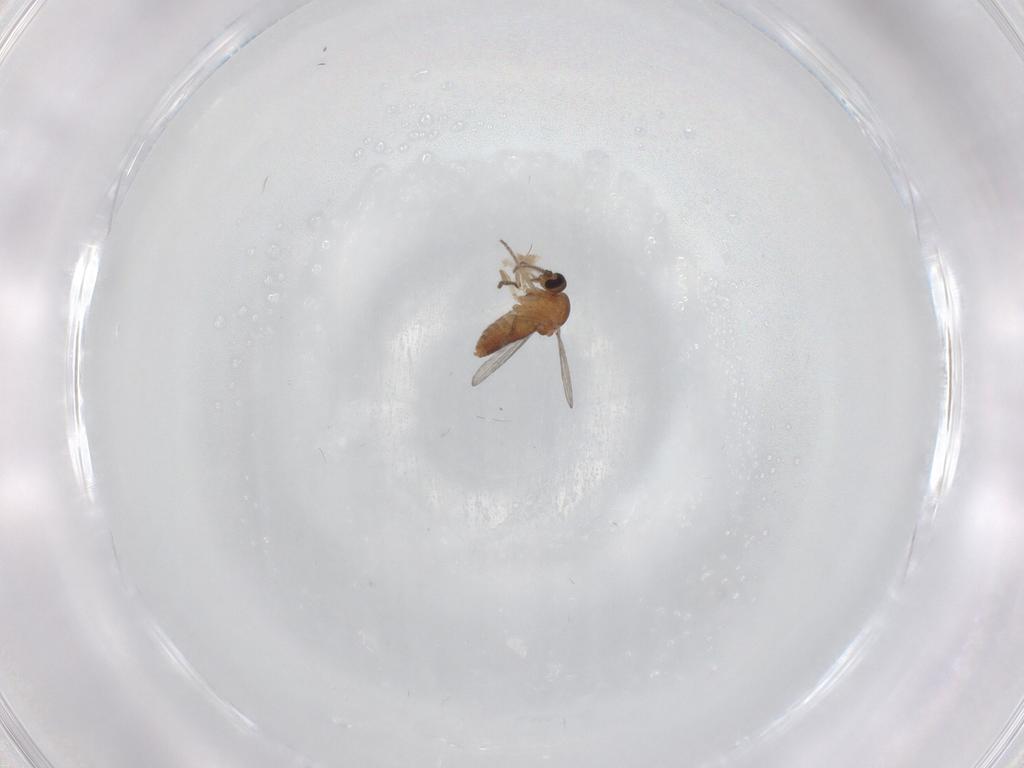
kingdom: Animalia
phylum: Arthropoda
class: Insecta
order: Diptera
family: Ceratopogonidae
